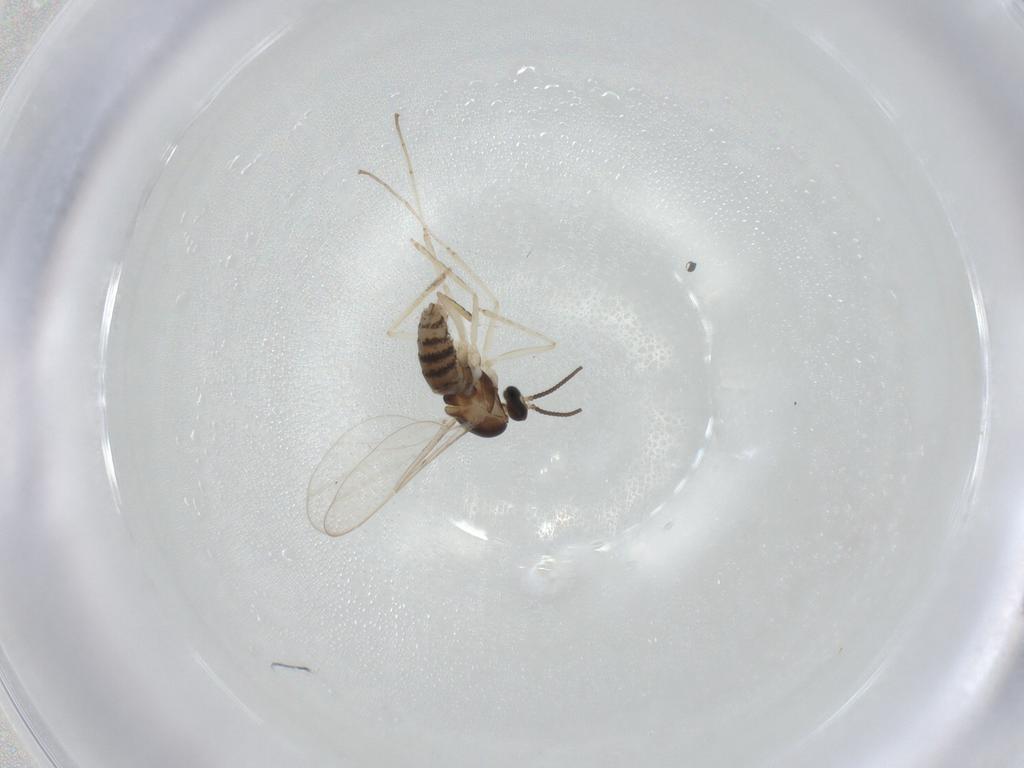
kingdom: Animalia
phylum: Arthropoda
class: Insecta
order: Diptera
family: Cecidomyiidae
